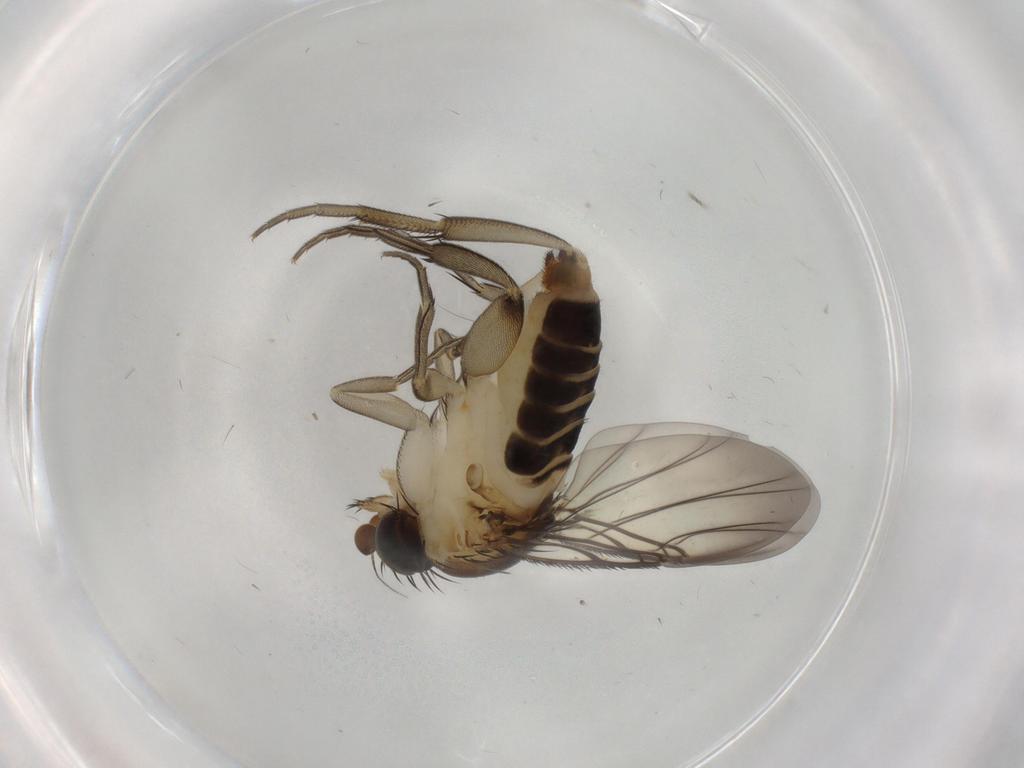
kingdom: Animalia
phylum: Arthropoda
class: Insecta
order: Diptera
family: Phoridae
